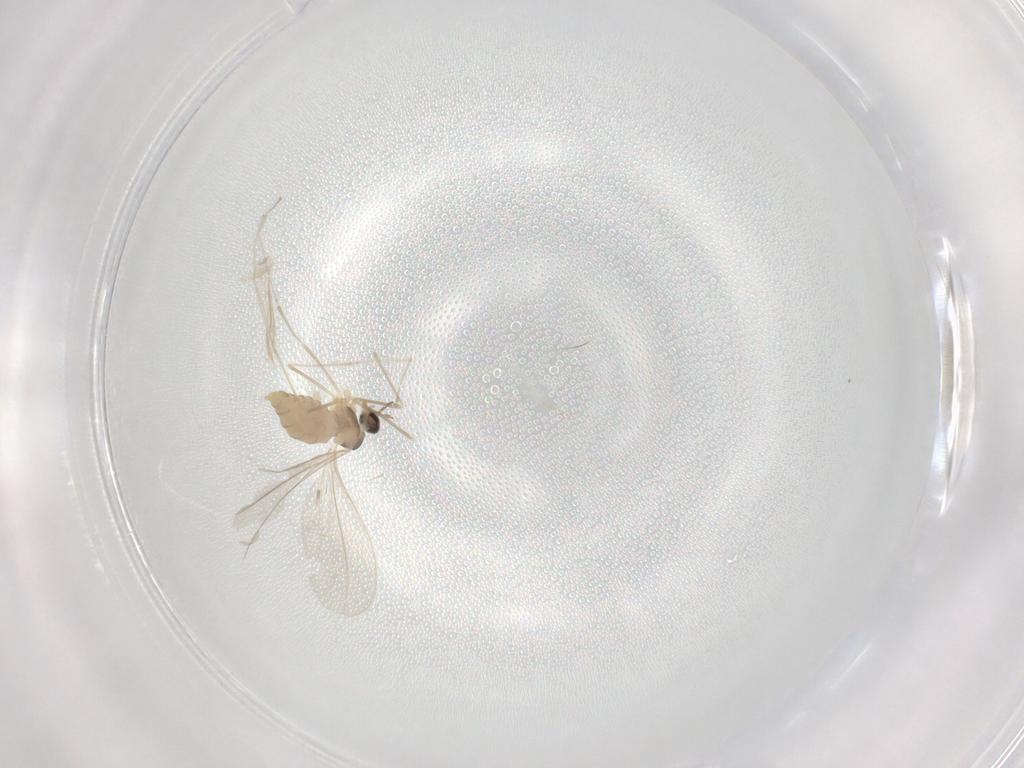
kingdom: Animalia
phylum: Arthropoda
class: Insecta
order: Diptera
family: Cecidomyiidae
